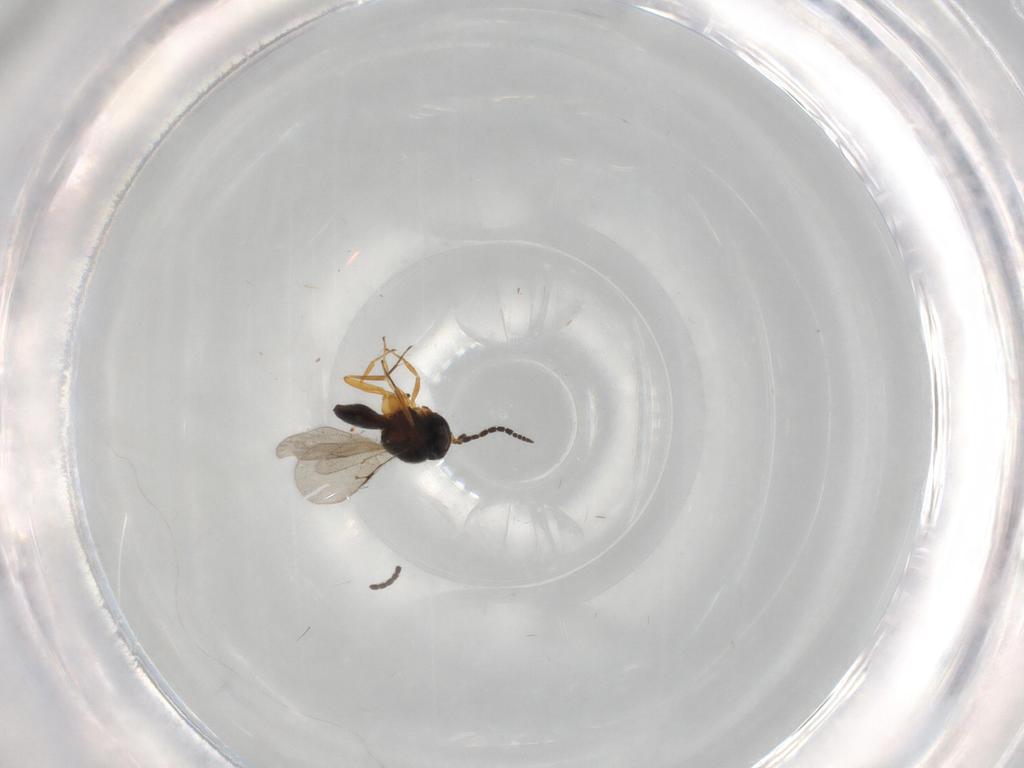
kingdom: Animalia
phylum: Arthropoda
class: Insecta
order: Coleoptera
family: Curculionidae
